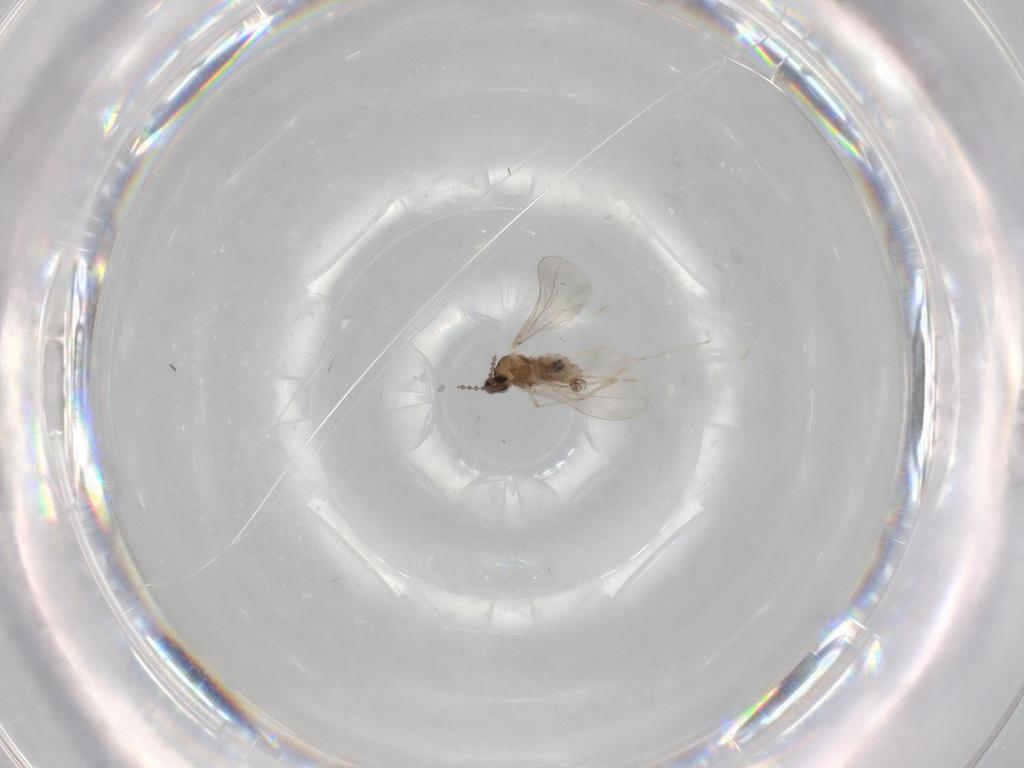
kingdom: Animalia
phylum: Arthropoda
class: Insecta
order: Diptera
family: Cecidomyiidae
